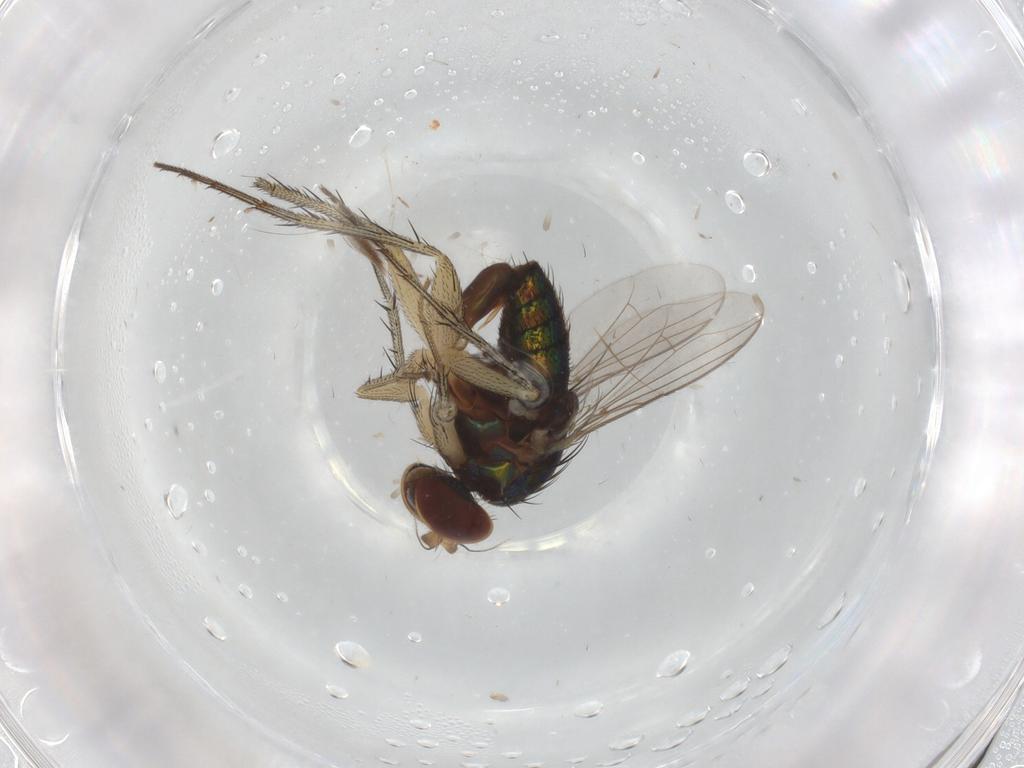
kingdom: Animalia
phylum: Arthropoda
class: Insecta
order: Diptera
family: Dolichopodidae
